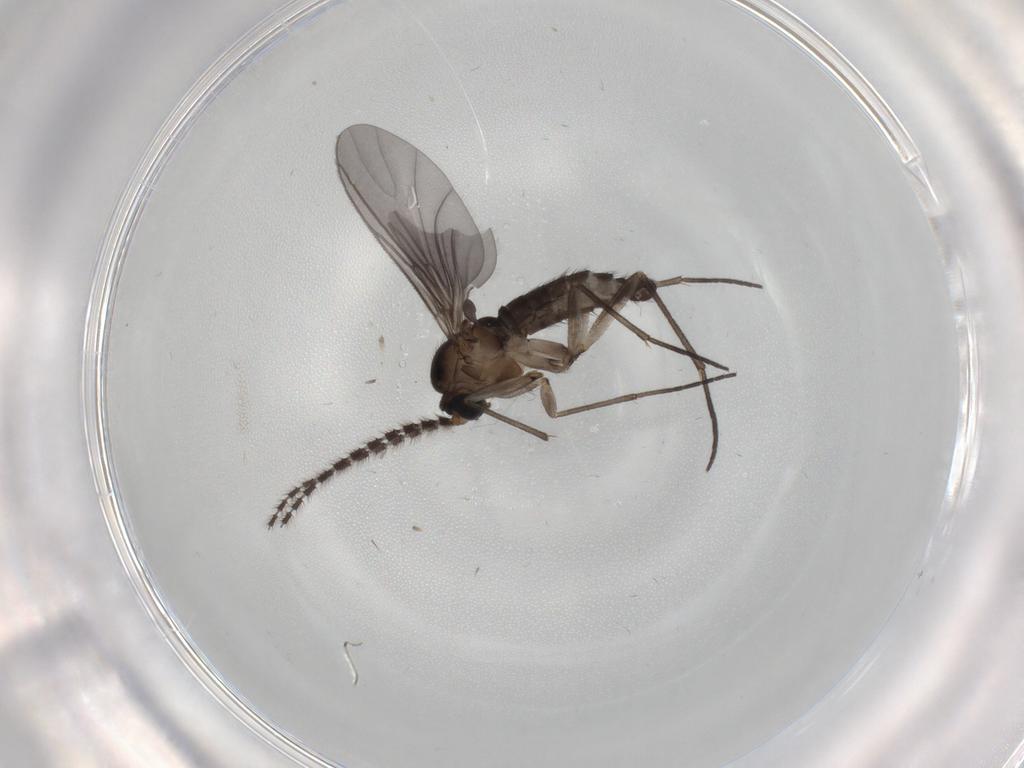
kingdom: Animalia
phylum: Arthropoda
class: Insecta
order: Diptera
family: Sciaridae
